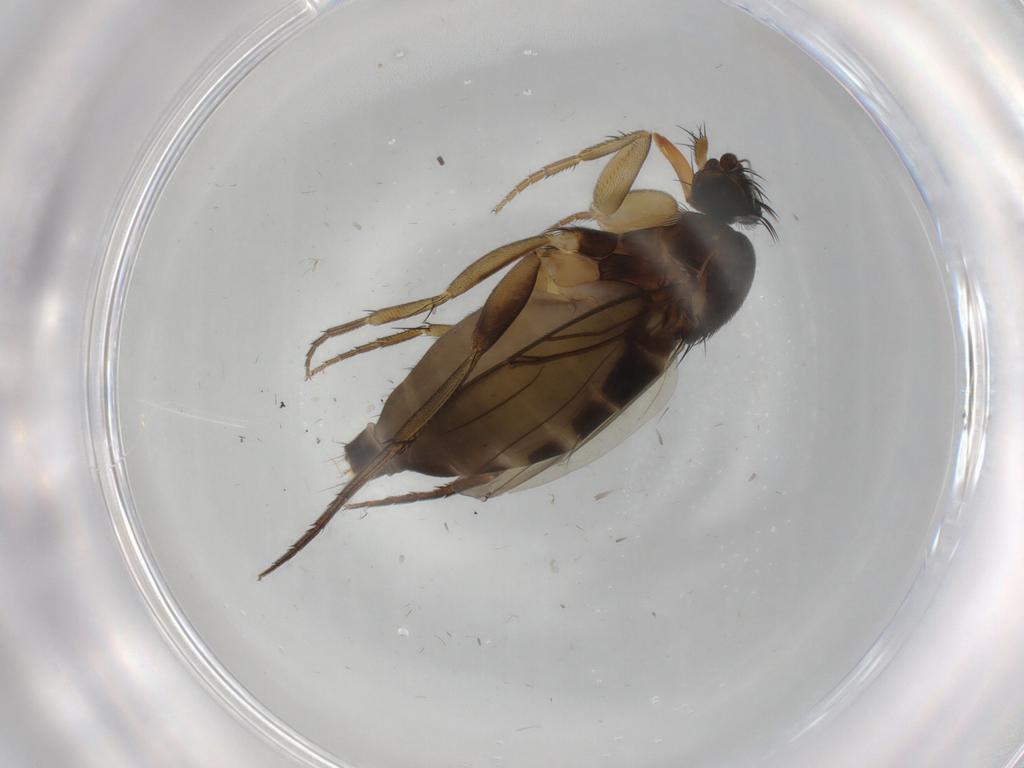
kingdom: Animalia
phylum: Arthropoda
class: Insecta
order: Diptera
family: Phoridae
